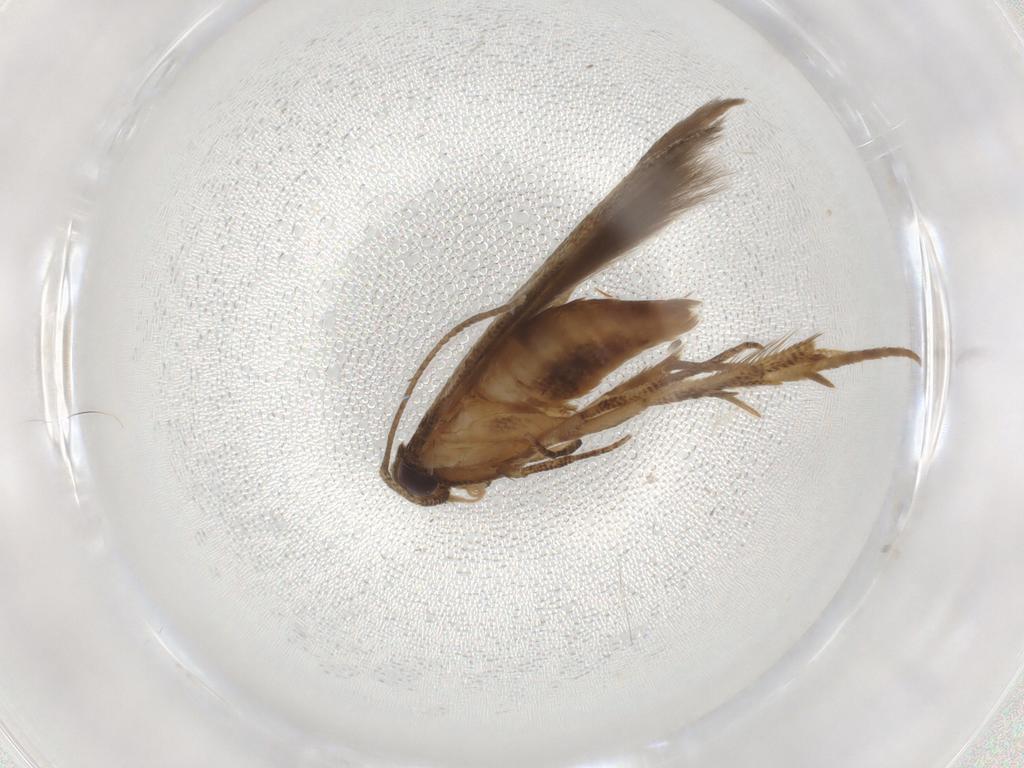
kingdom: Animalia
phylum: Arthropoda
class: Insecta
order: Lepidoptera
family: Cosmopterigidae
